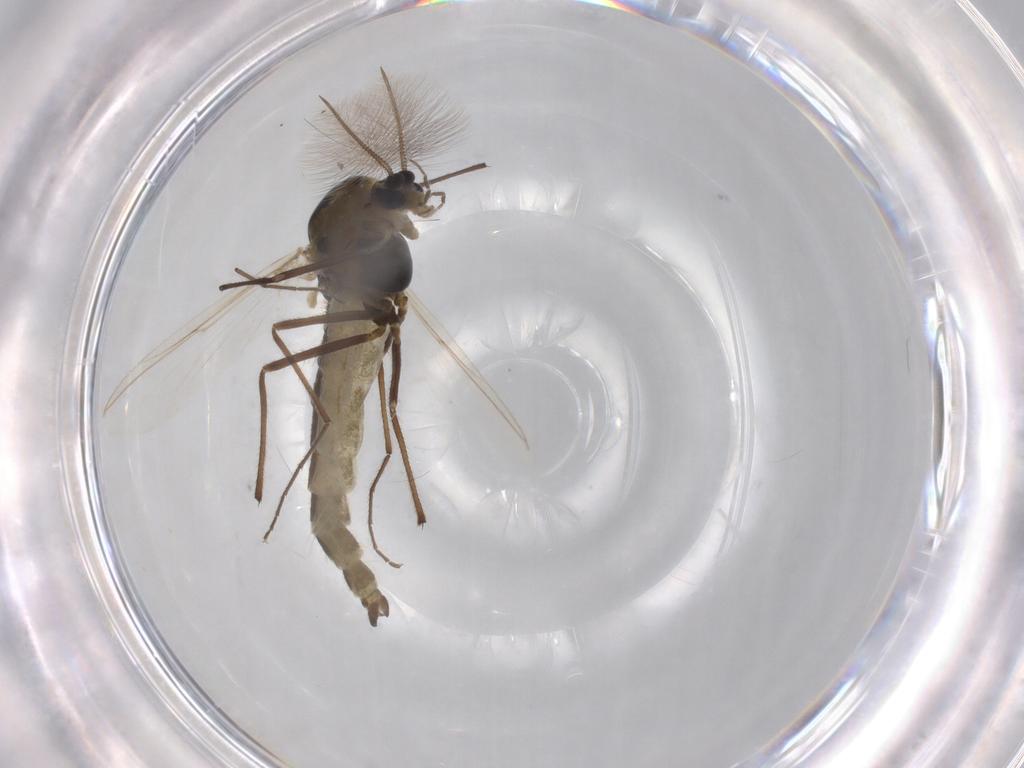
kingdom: Animalia
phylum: Arthropoda
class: Insecta
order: Diptera
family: Chironomidae
